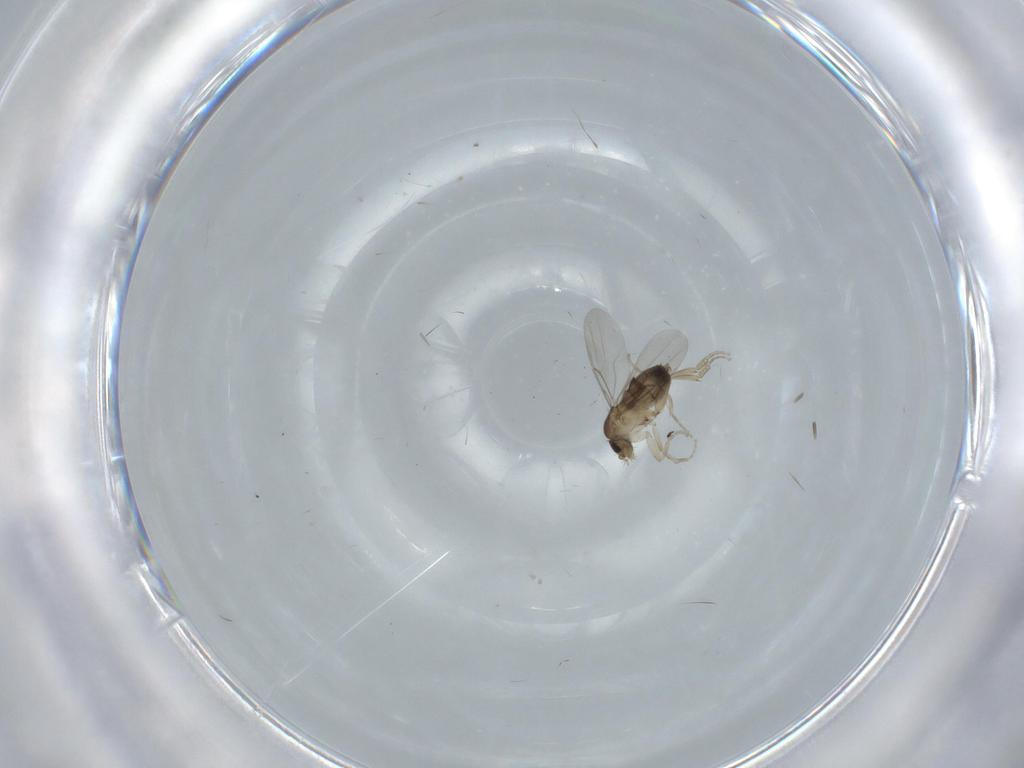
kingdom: Animalia
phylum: Arthropoda
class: Insecta
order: Diptera
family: Phoridae
